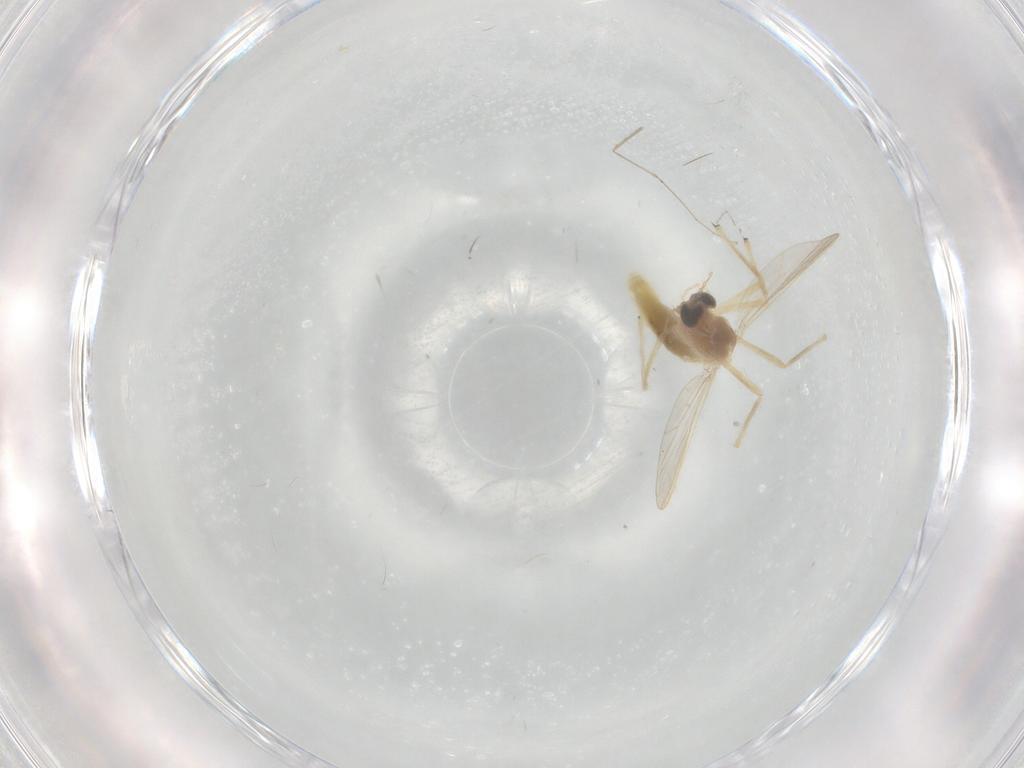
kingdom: Animalia
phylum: Arthropoda
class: Insecta
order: Diptera
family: Chironomidae
